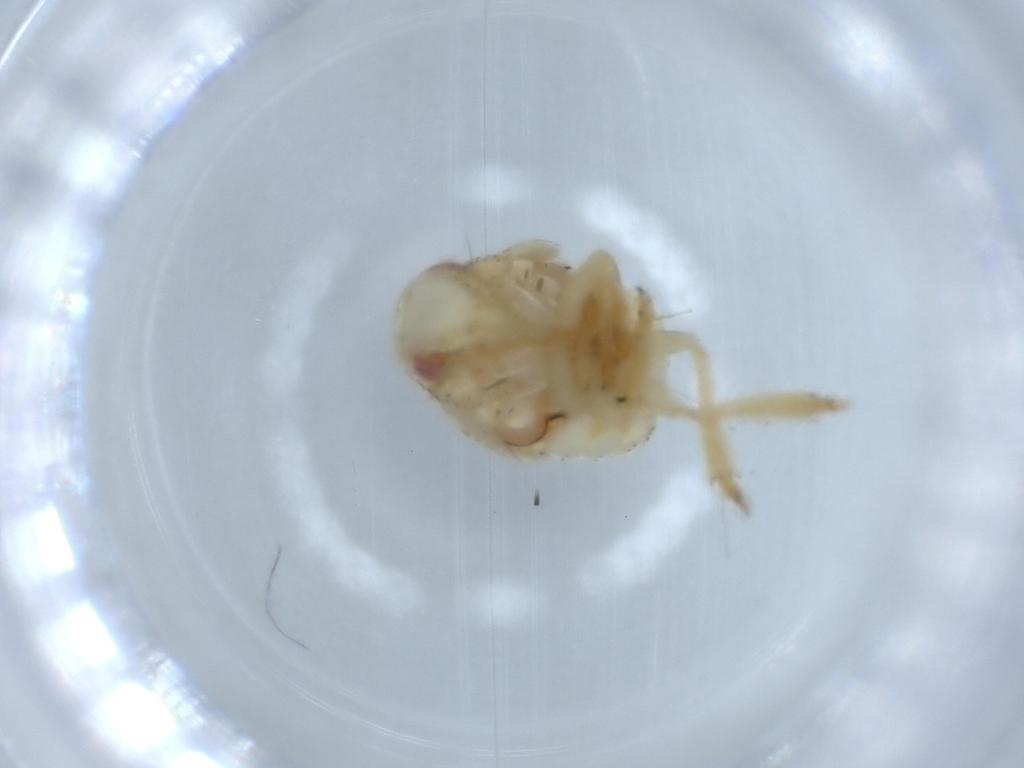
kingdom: Animalia
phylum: Arthropoda
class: Insecta
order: Hemiptera
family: Acanaloniidae
